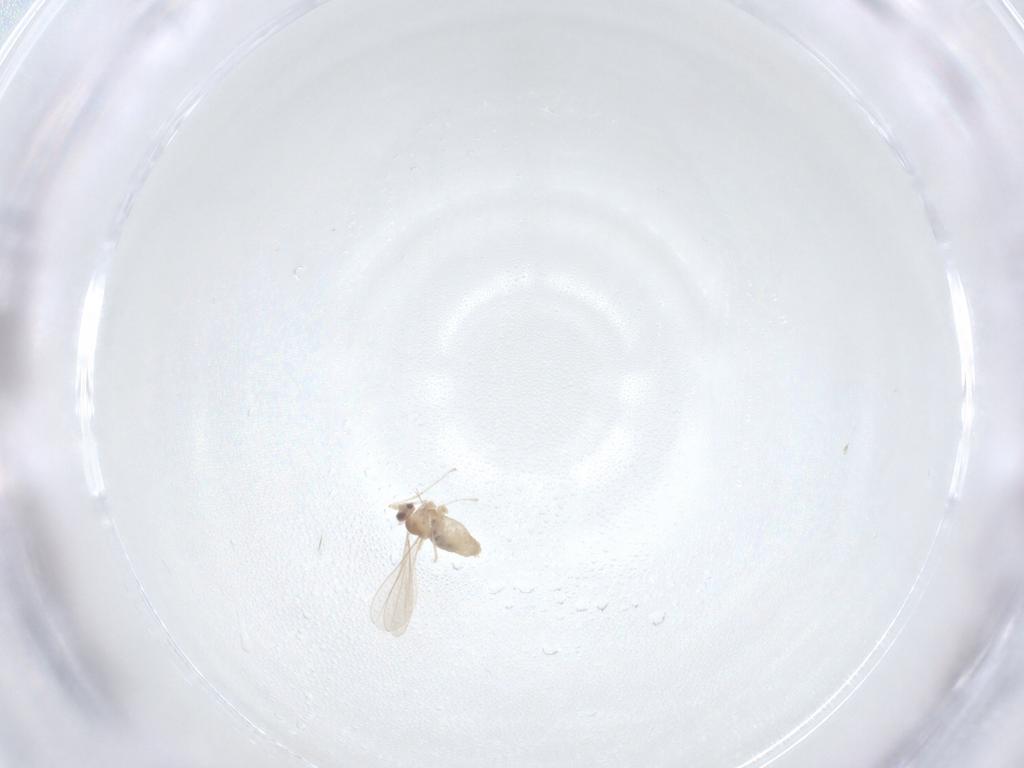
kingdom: Animalia
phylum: Arthropoda
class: Insecta
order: Diptera
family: Cecidomyiidae
